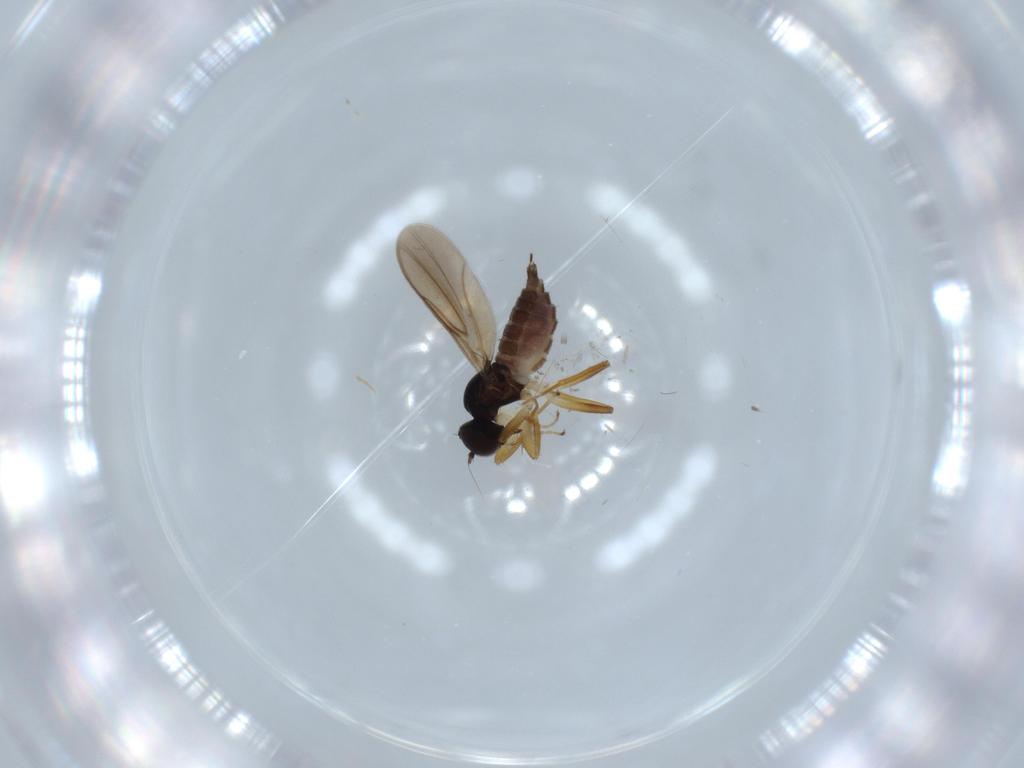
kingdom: Animalia
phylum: Arthropoda
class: Insecta
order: Diptera
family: Hybotidae
